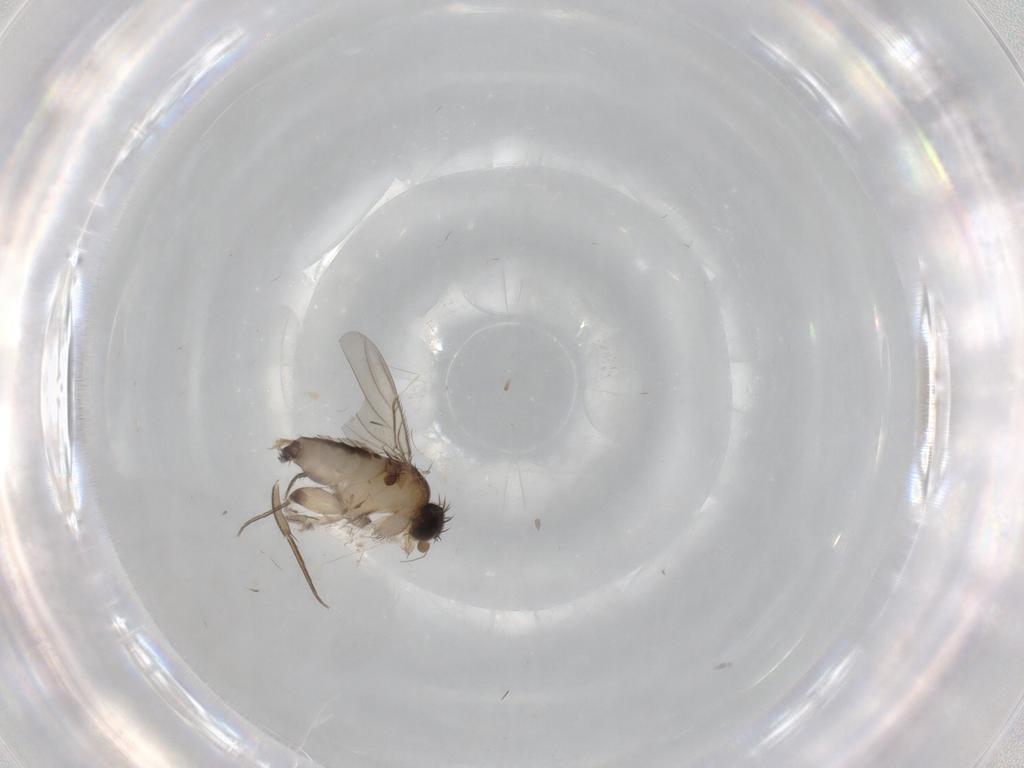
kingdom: Animalia
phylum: Arthropoda
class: Insecta
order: Diptera
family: Phoridae
